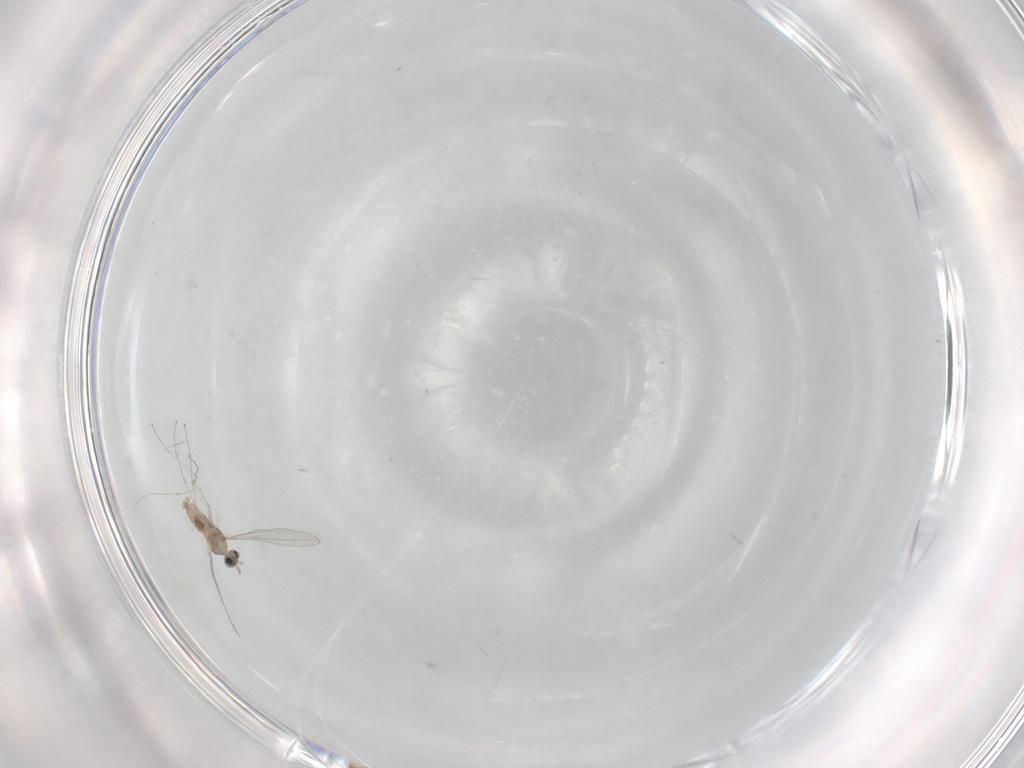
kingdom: Animalia
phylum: Arthropoda
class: Insecta
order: Diptera
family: Cecidomyiidae
